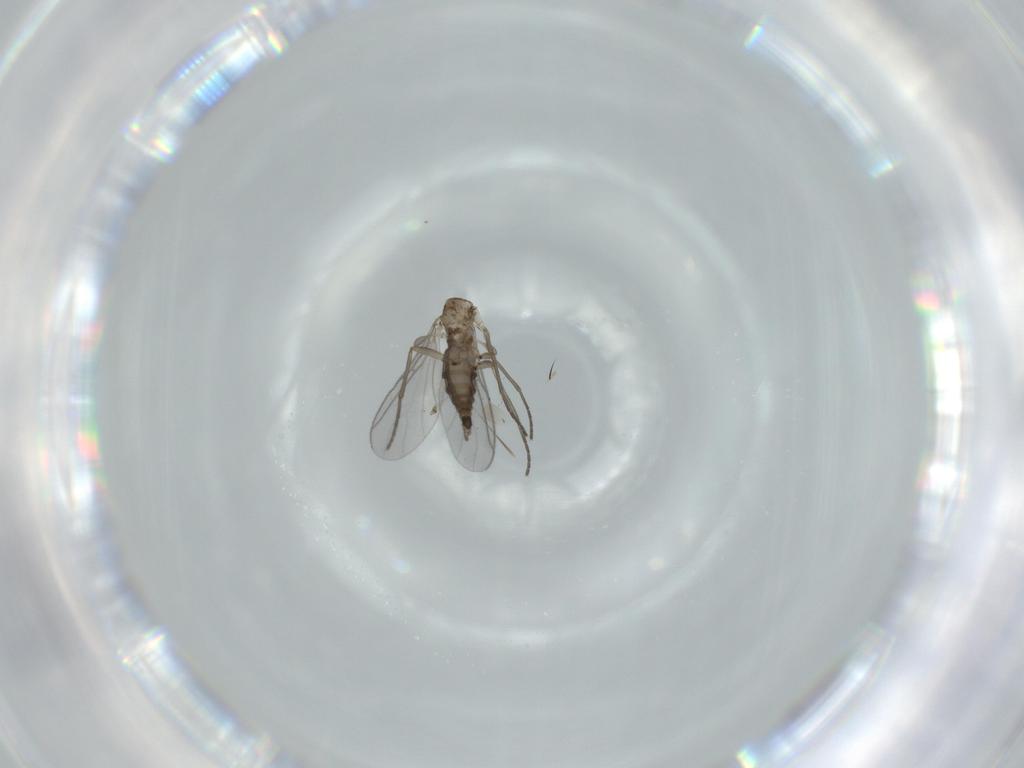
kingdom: Animalia
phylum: Arthropoda
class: Insecta
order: Diptera
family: Sciaridae
